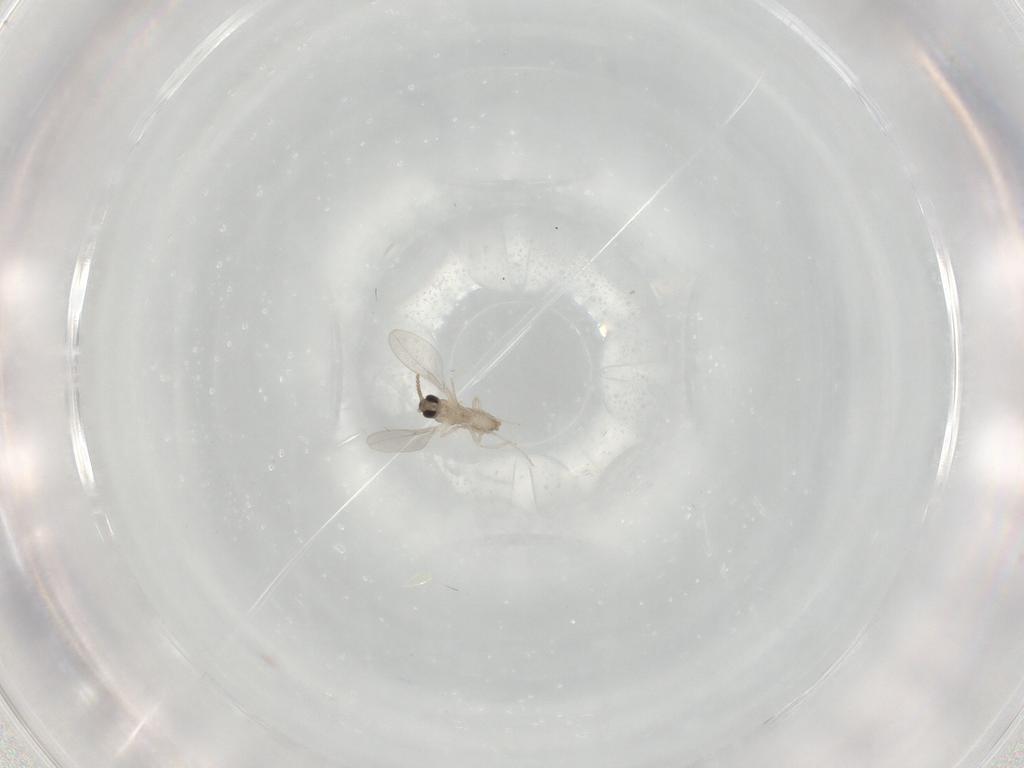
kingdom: Animalia
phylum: Arthropoda
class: Insecta
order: Diptera
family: Cecidomyiidae
